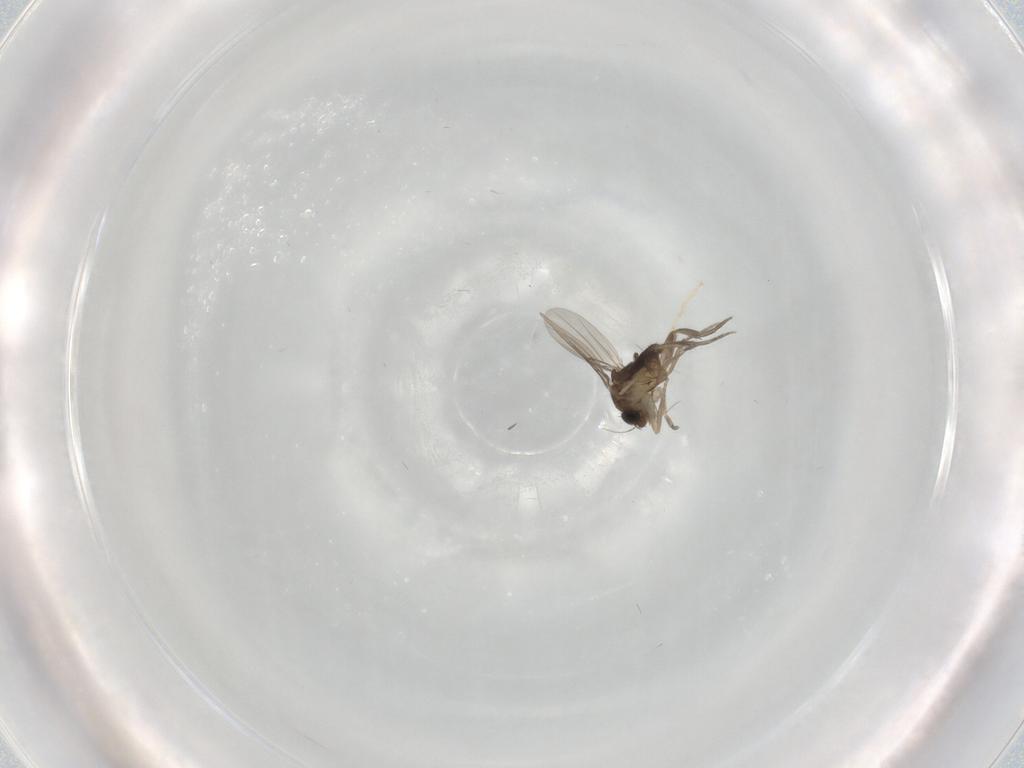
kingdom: Animalia
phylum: Arthropoda
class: Insecta
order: Diptera
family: Phoridae
